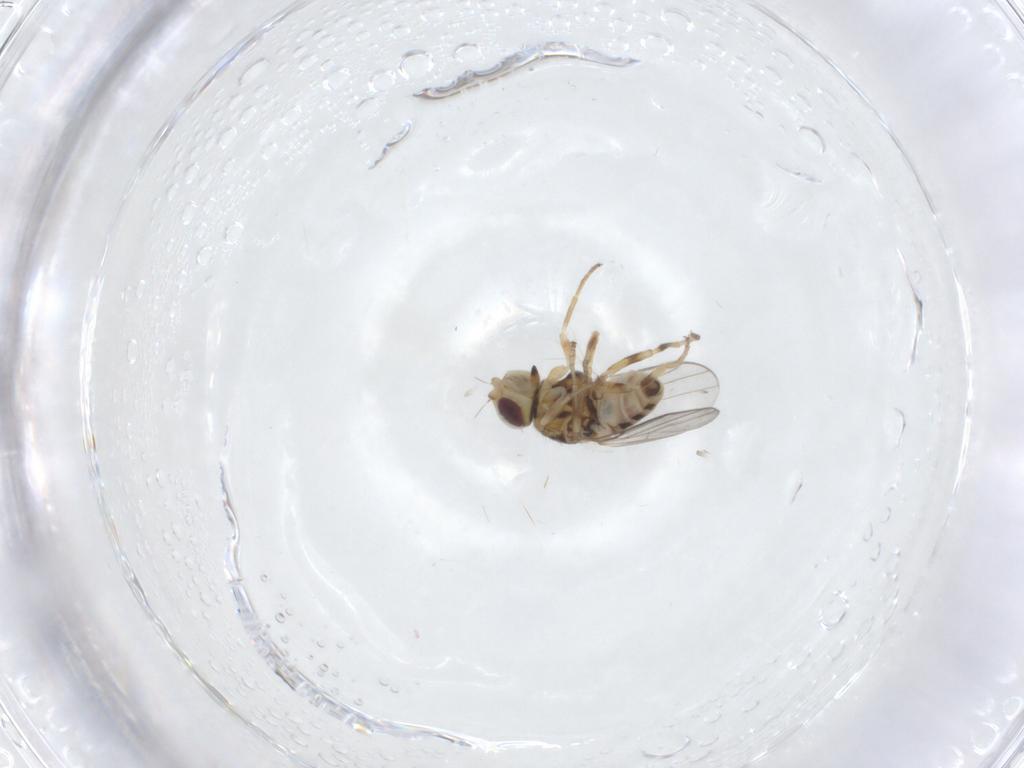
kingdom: Animalia
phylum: Arthropoda
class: Insecta
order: Diptera
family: Chloropidae
